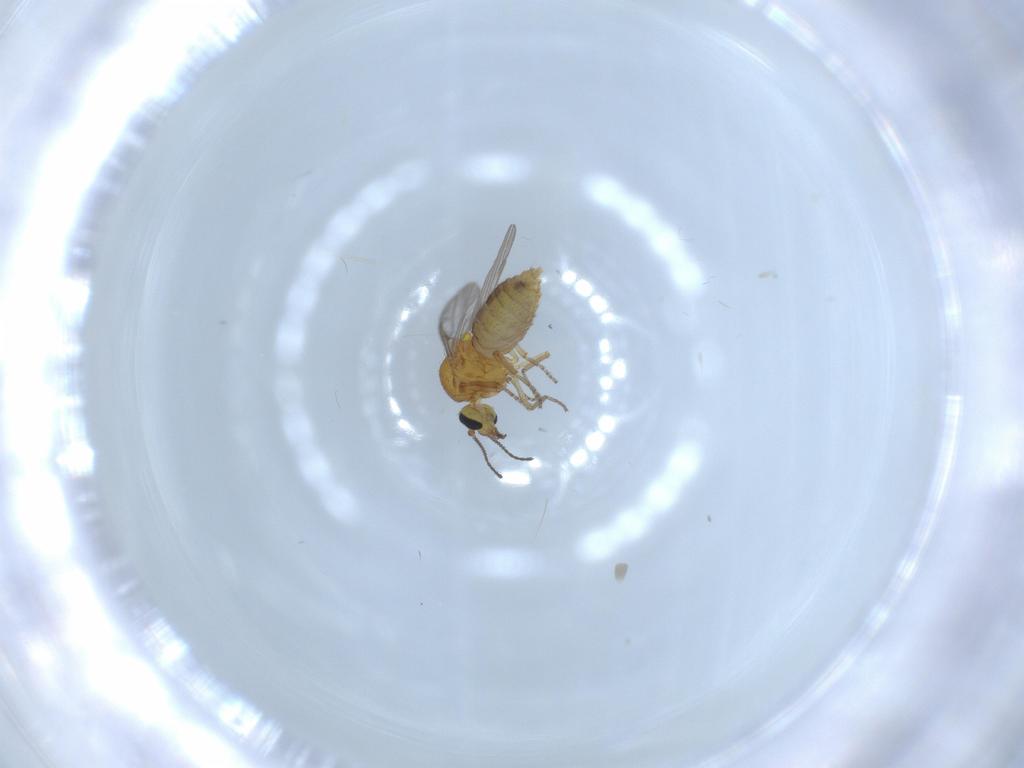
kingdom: Animalia
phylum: Arthropoda
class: Insecta
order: Diptera
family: Ceratopogonidae
